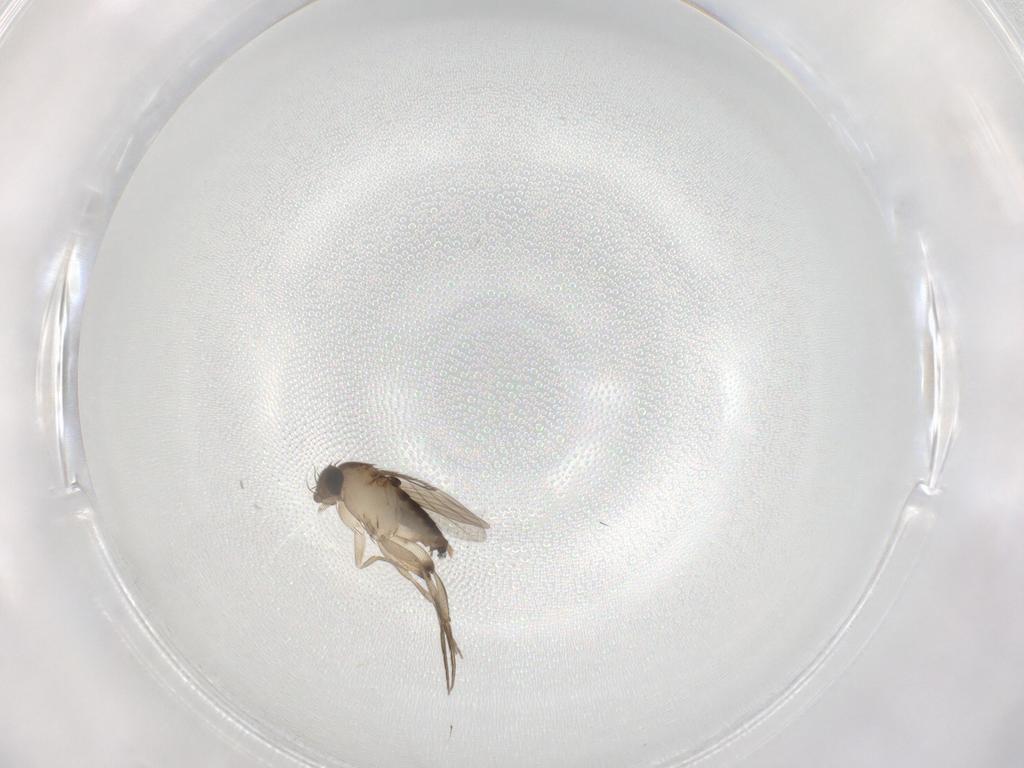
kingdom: Animalia
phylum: Arthropoda
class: Insecta
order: Diptera
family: Phoridae
